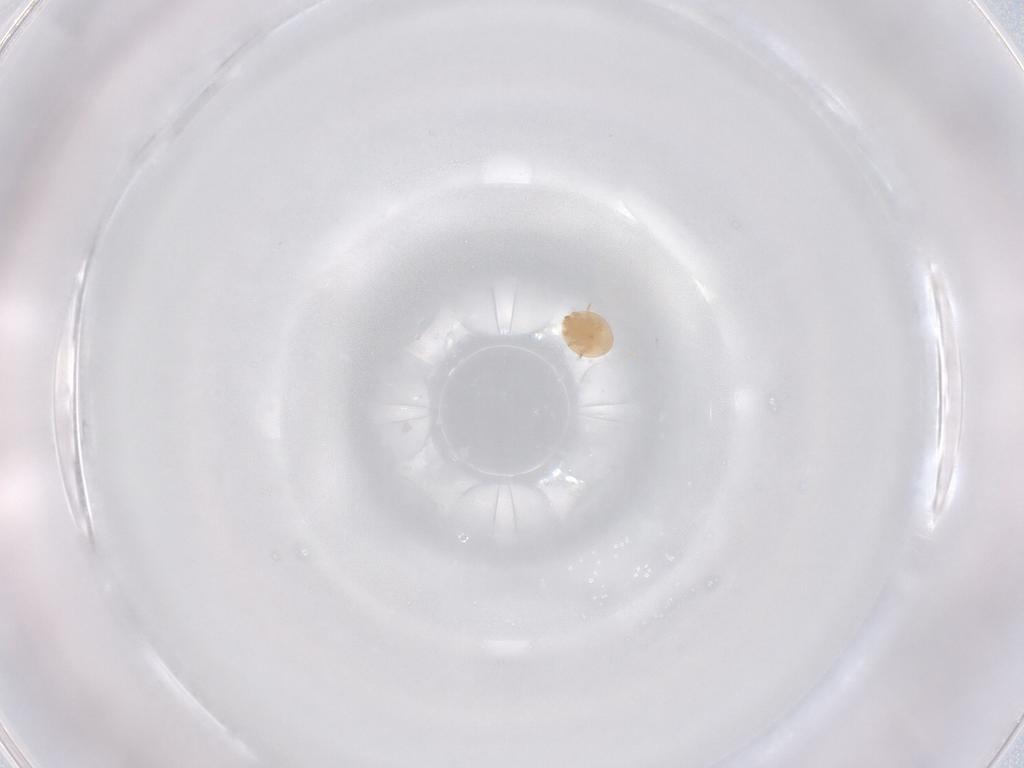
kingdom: Animalia
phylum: Arthropoda
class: Arachnida
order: Mesostigmata
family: Trematuridae
